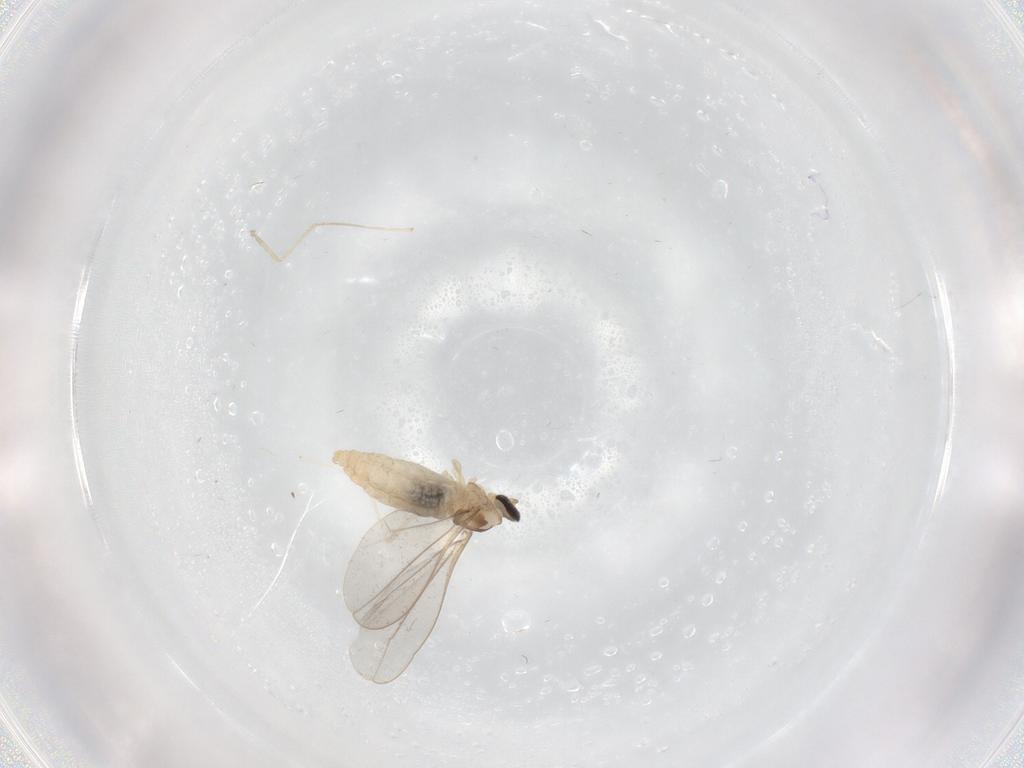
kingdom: Animalia
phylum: Arthropoda
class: Insecta
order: Diptera
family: Cecidomyiidae
